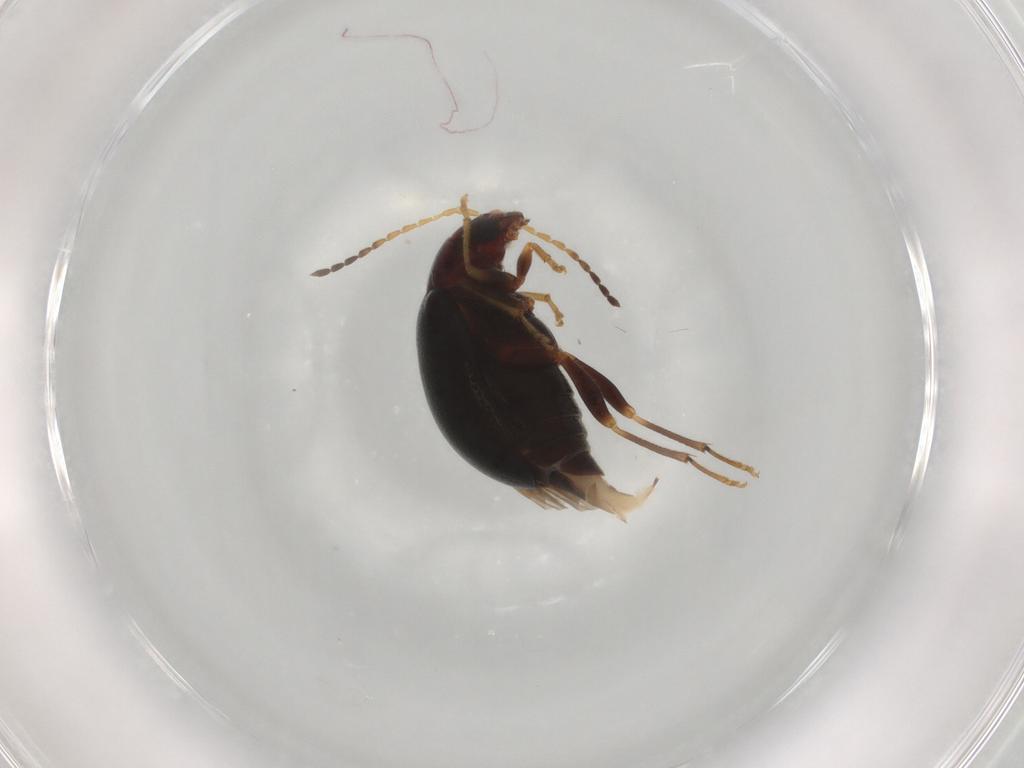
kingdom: Animalia
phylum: Arthropoda
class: Insecta
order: Coleoptera
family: Chrysomelidae
